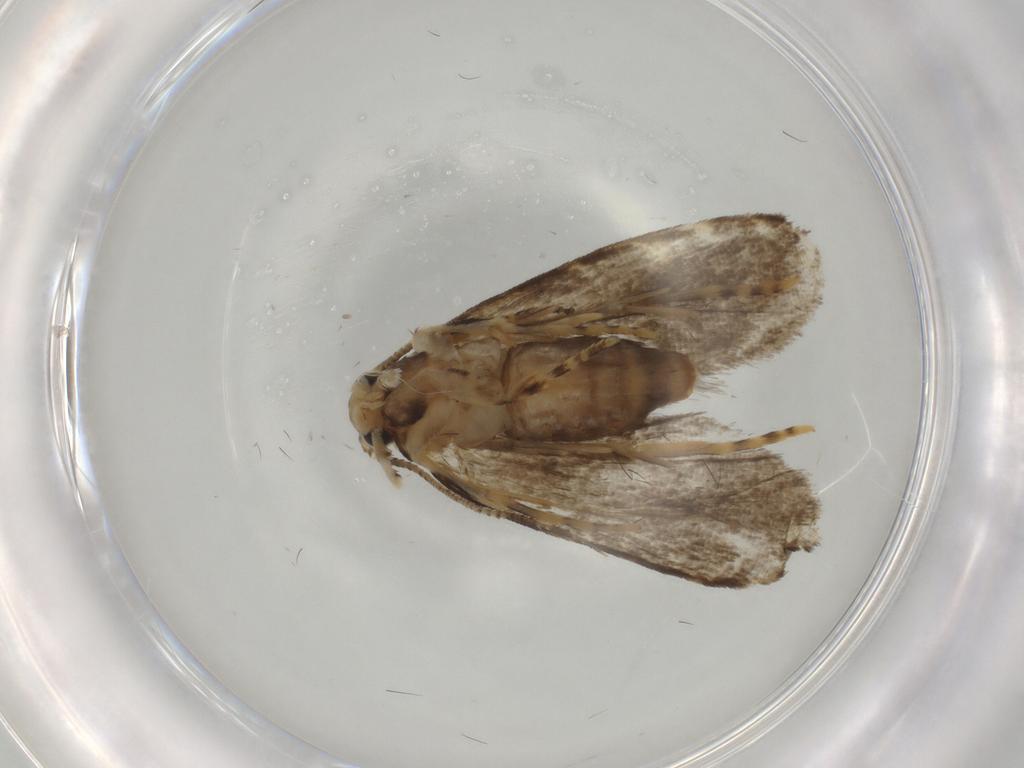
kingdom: Animalia
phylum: Arthropoda
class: Insecta
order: Lepidoptera
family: Tineidae
